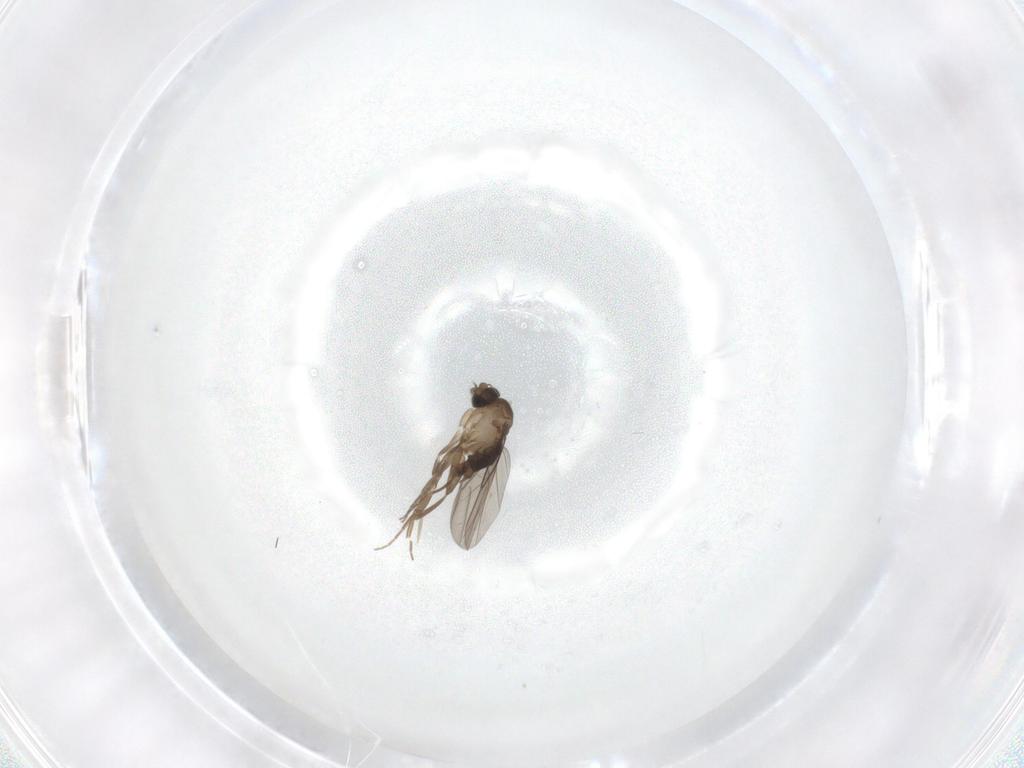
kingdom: Animalia
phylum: Arthropoda
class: Insecta
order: Diptera
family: Phoridae
